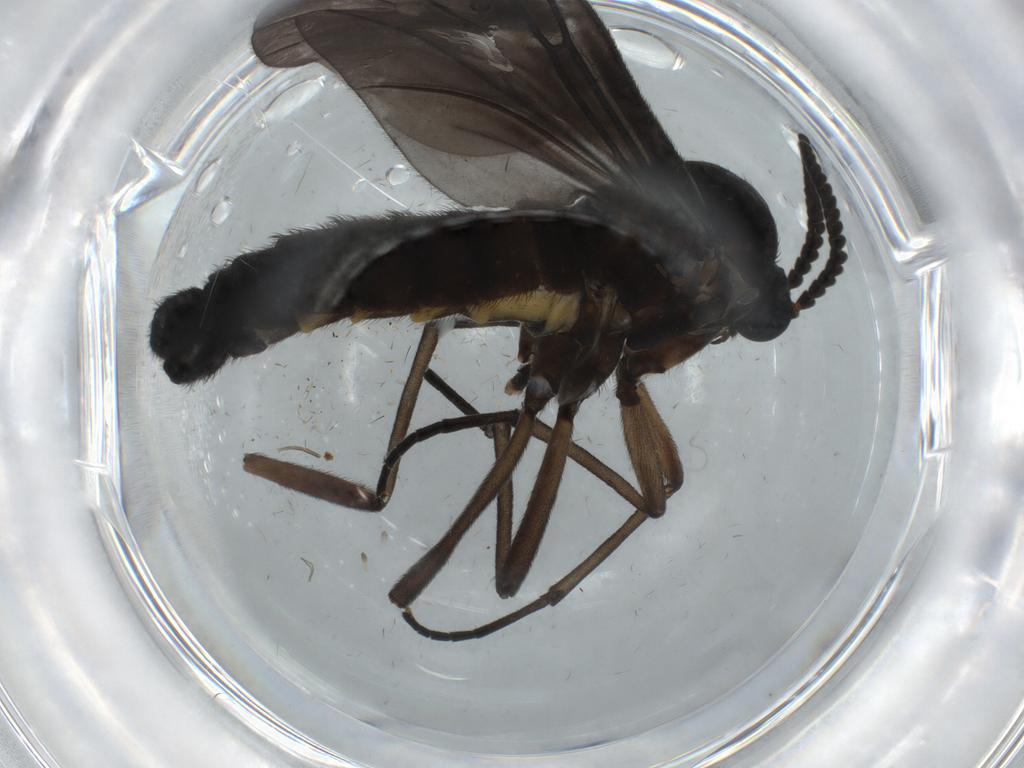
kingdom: Animalia
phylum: Arthropoda
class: Insecta
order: Diptera
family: Sciaridae
